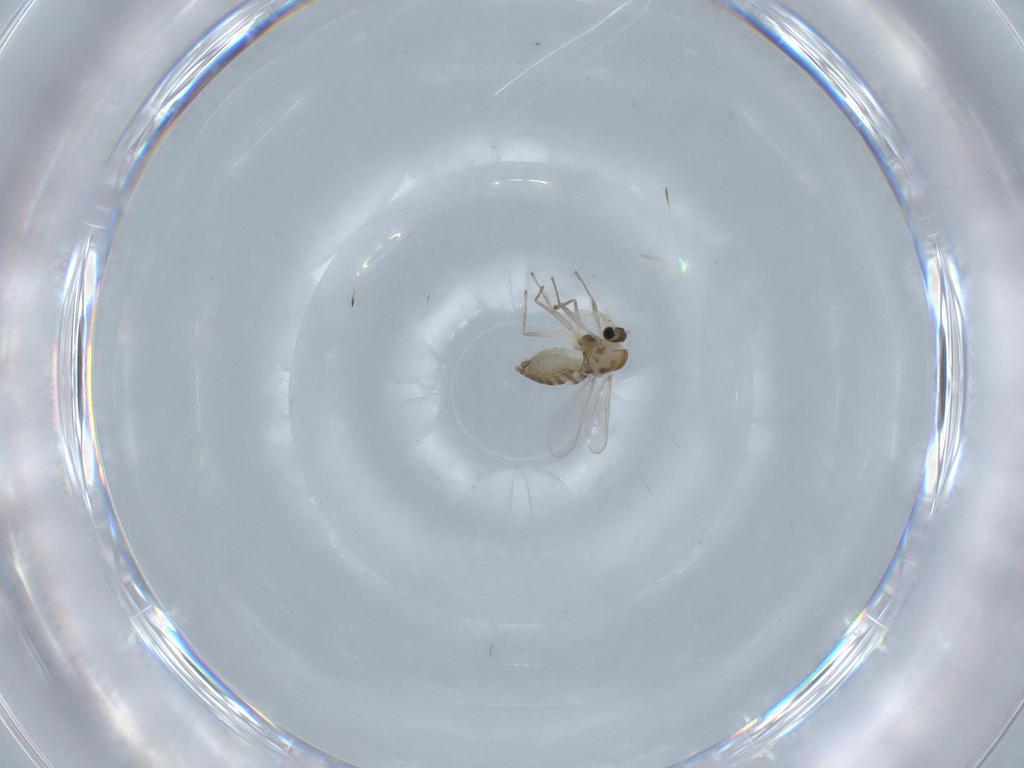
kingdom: Animalia
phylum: Arthropoda
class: Insecta
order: Diptera
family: Chironomidae
